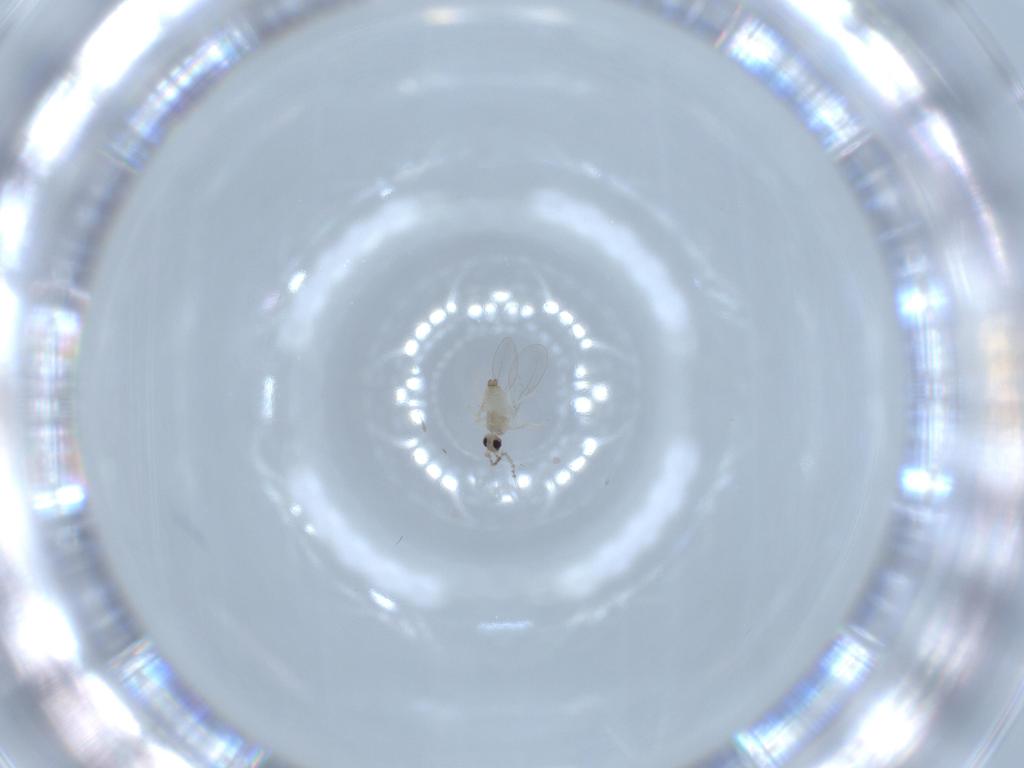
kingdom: Animalia
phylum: Arthropoda
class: Insecta
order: Diptera
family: Cecidomyiidae
